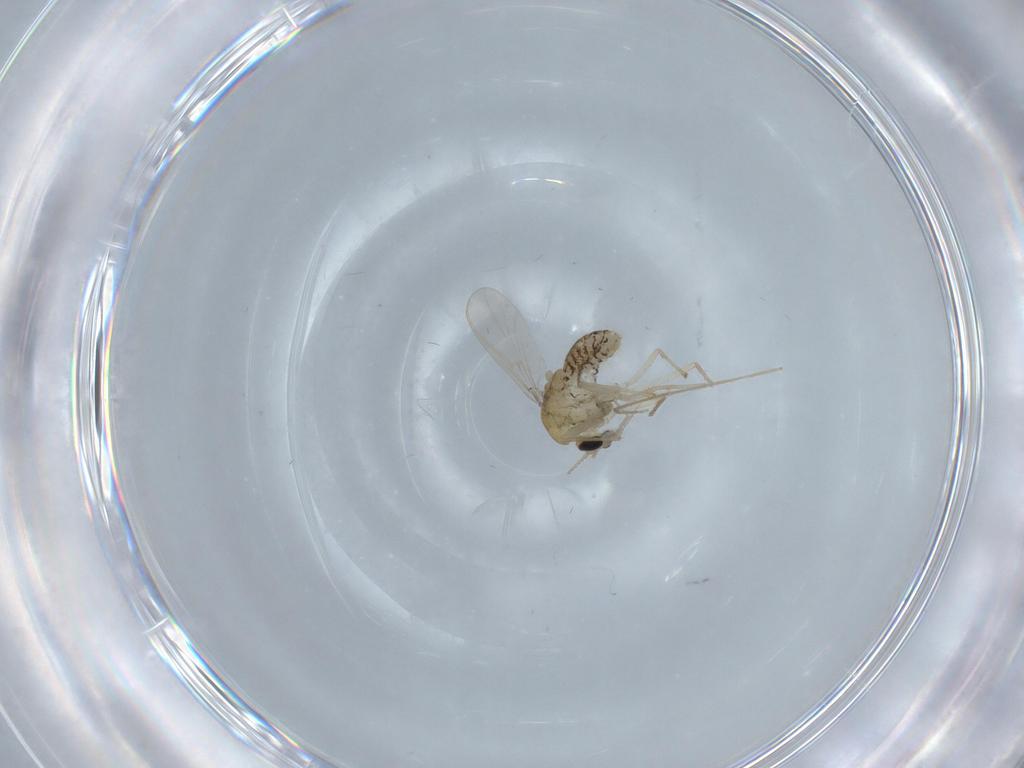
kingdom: Animalia
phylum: Arthropoda
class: Insecta
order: Diptera
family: Chironomidae
